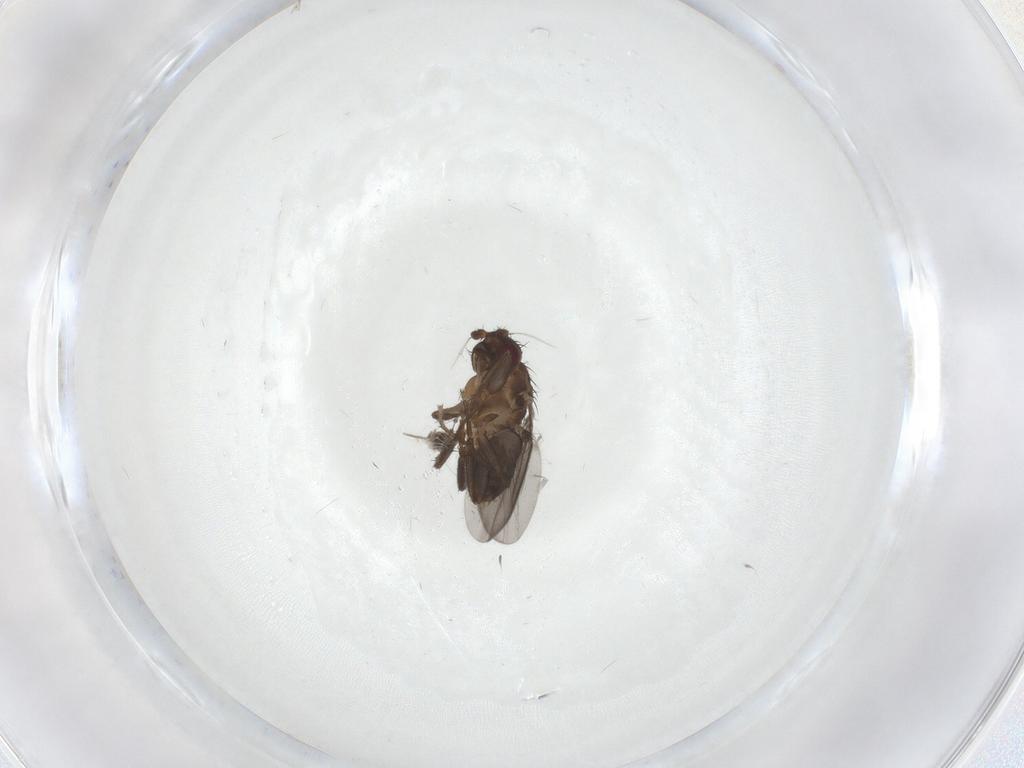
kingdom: Animalia
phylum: Arthropoda
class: Insecta
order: Diptera
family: Sphaeroceridae
